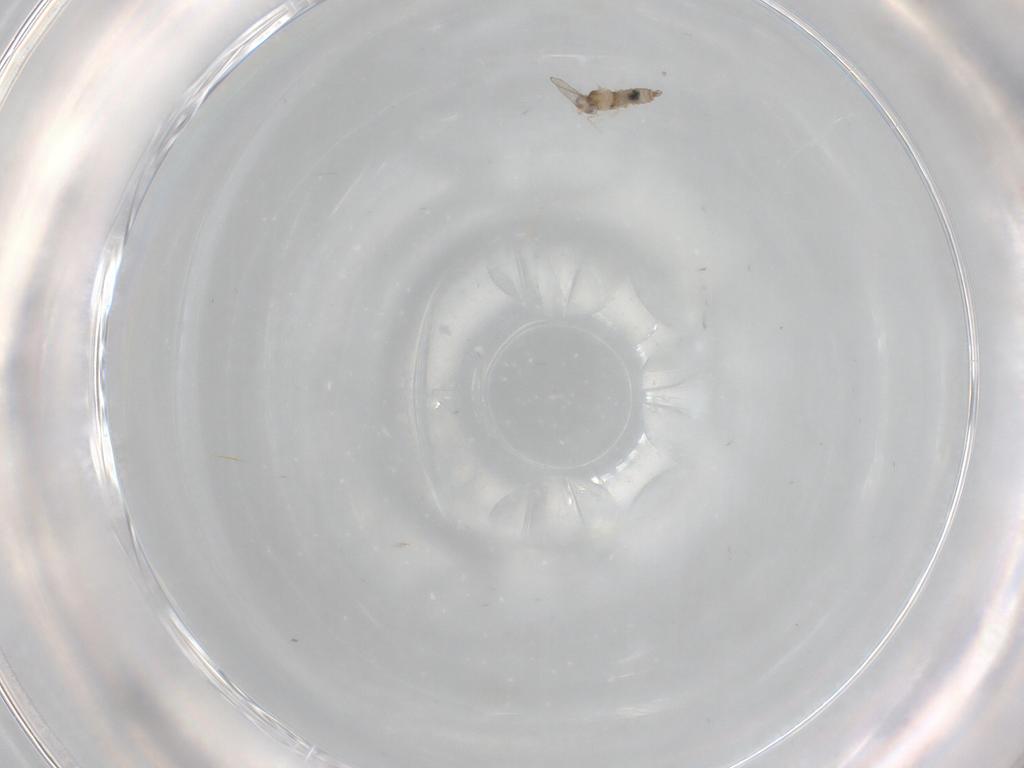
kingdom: Animalia
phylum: Arthropoda
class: Insecta
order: Diptera
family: Cecidomyiidae
